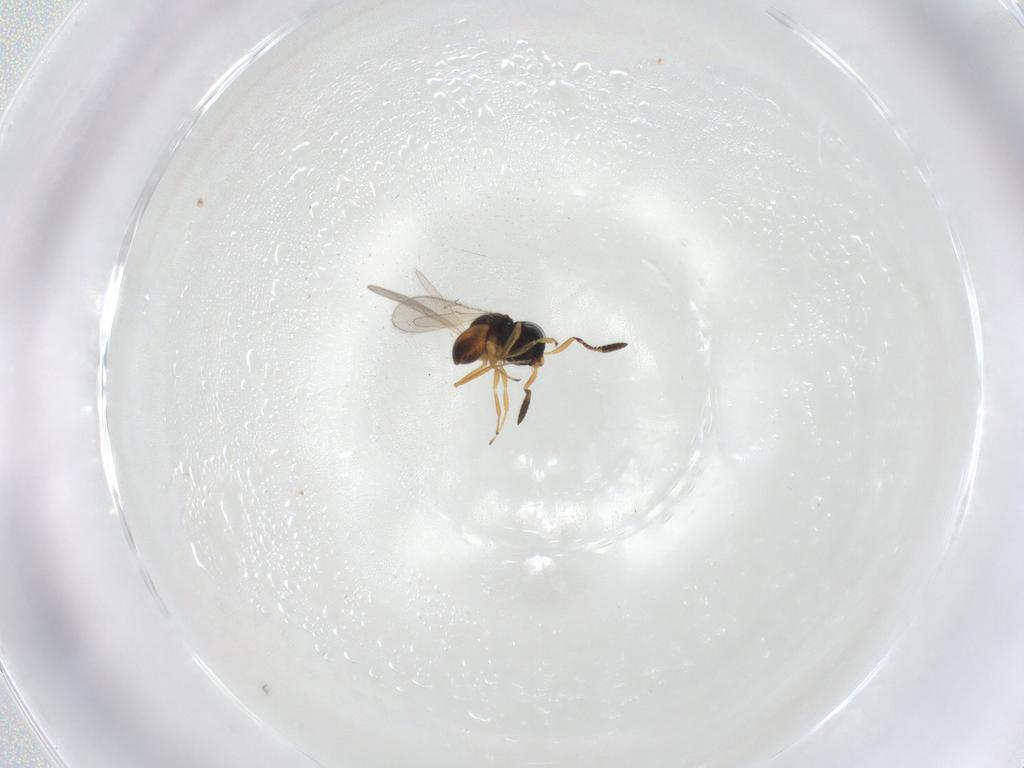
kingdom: Animalia
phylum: Arthropoda
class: Insecta
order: Hymenoptera
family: Scelionidae
